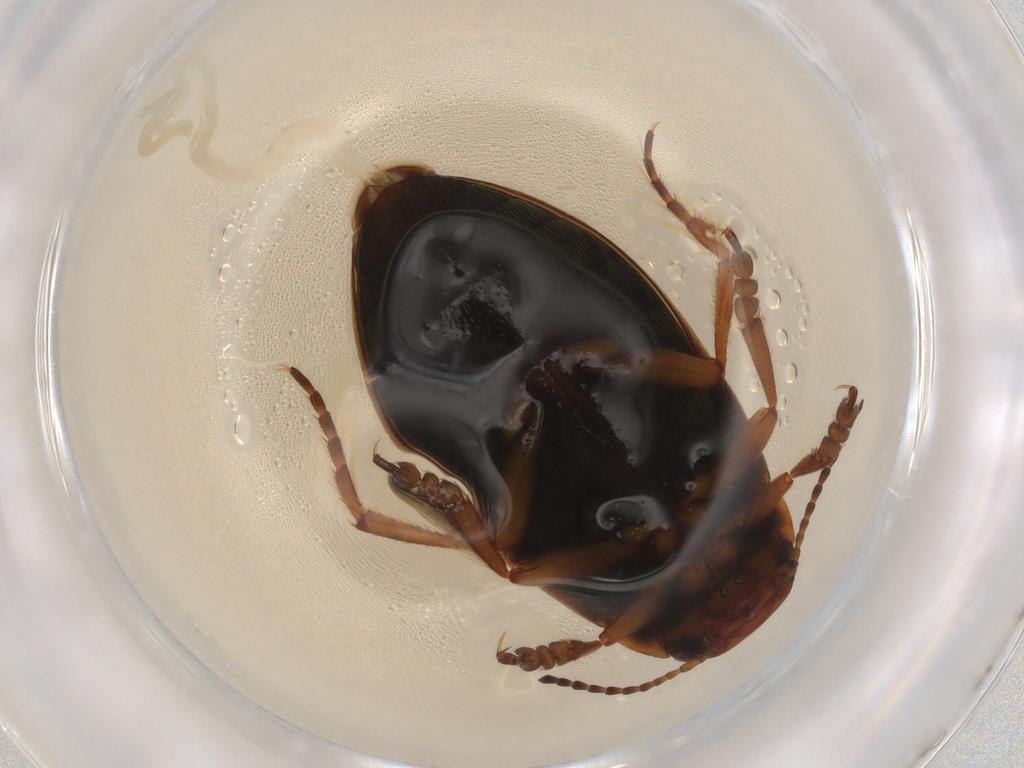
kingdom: Animalia
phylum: Arthropoda
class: Insecta
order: Coleoptera
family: Dytiscidae
